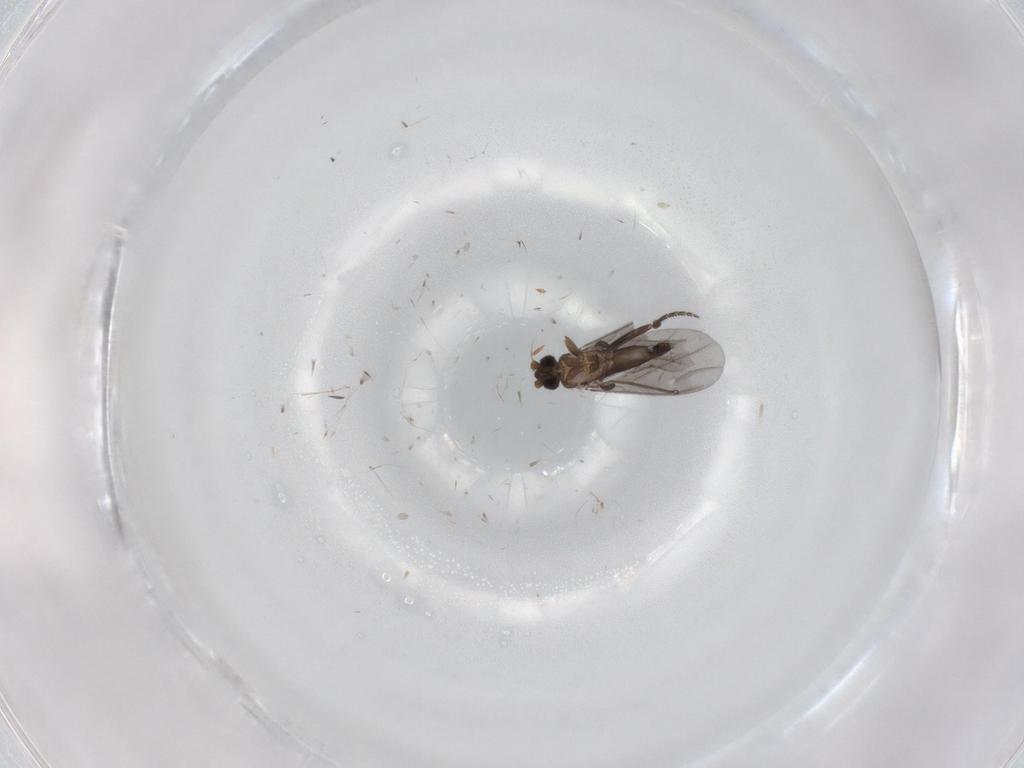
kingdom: Animalia
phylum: Arthropoda
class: Insecta
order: Diptera
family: Phoridae
